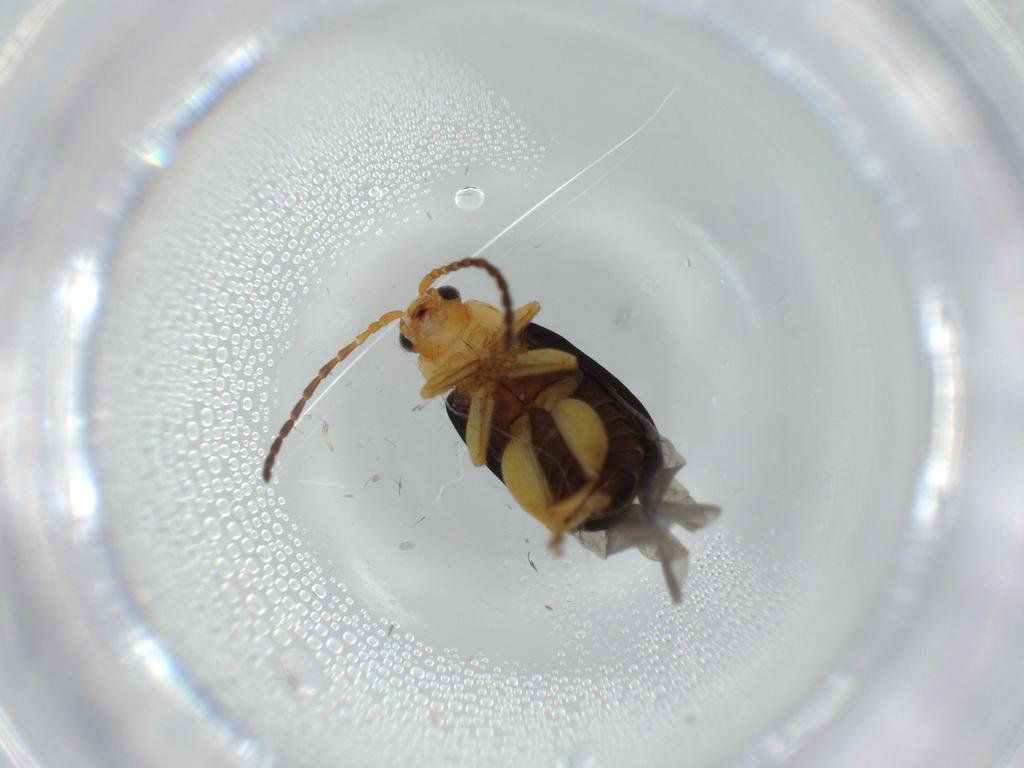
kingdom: Animalia
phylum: Arthropoda
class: Insecta
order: Coleoptera
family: Chrysomelidae
